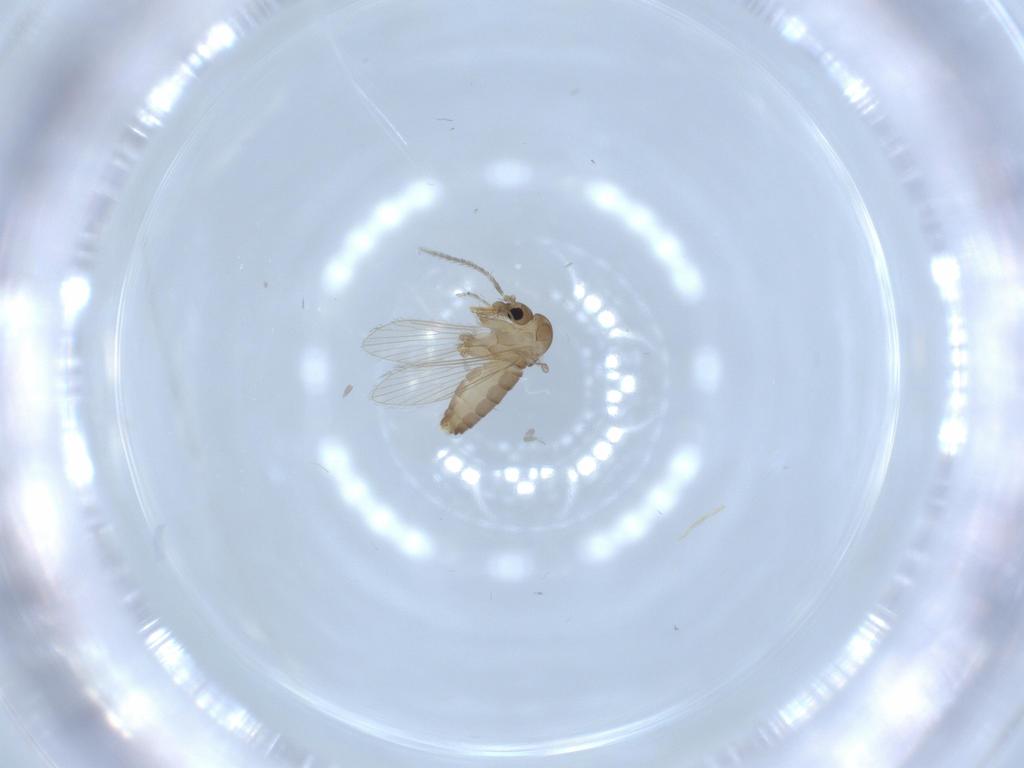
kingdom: Animalia
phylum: Arthropoda
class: Insecta
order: Diptera
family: Psychodidae
